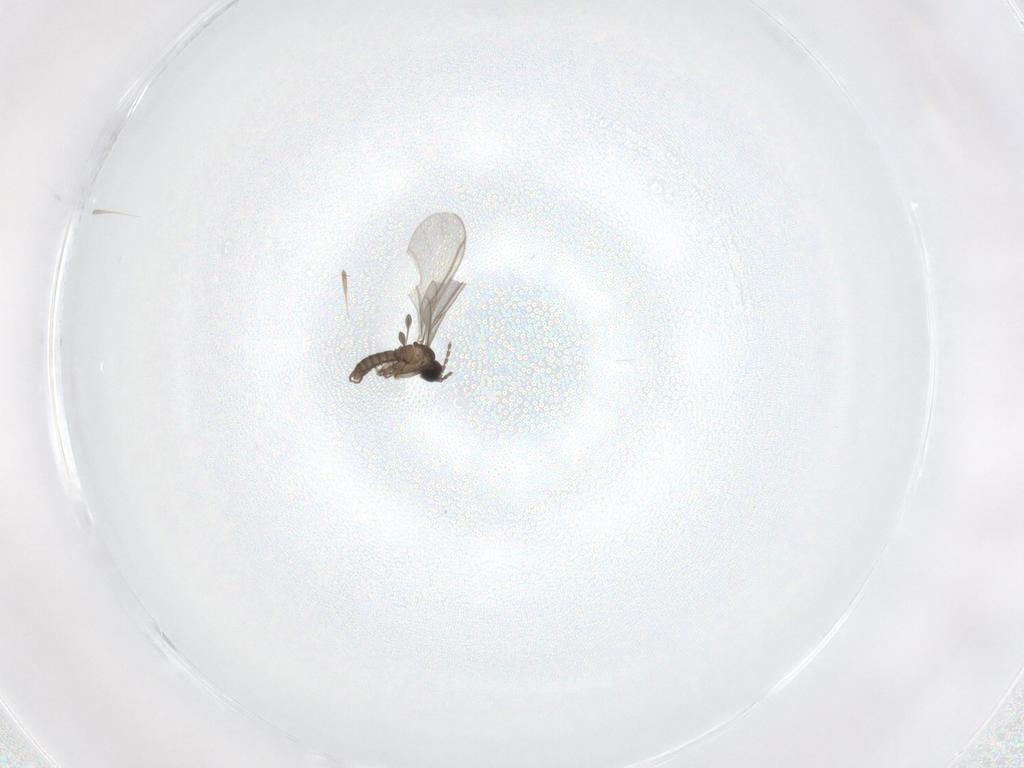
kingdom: Animalia
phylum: Arthropoda
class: Insecta
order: Diptera
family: Sciaridae
